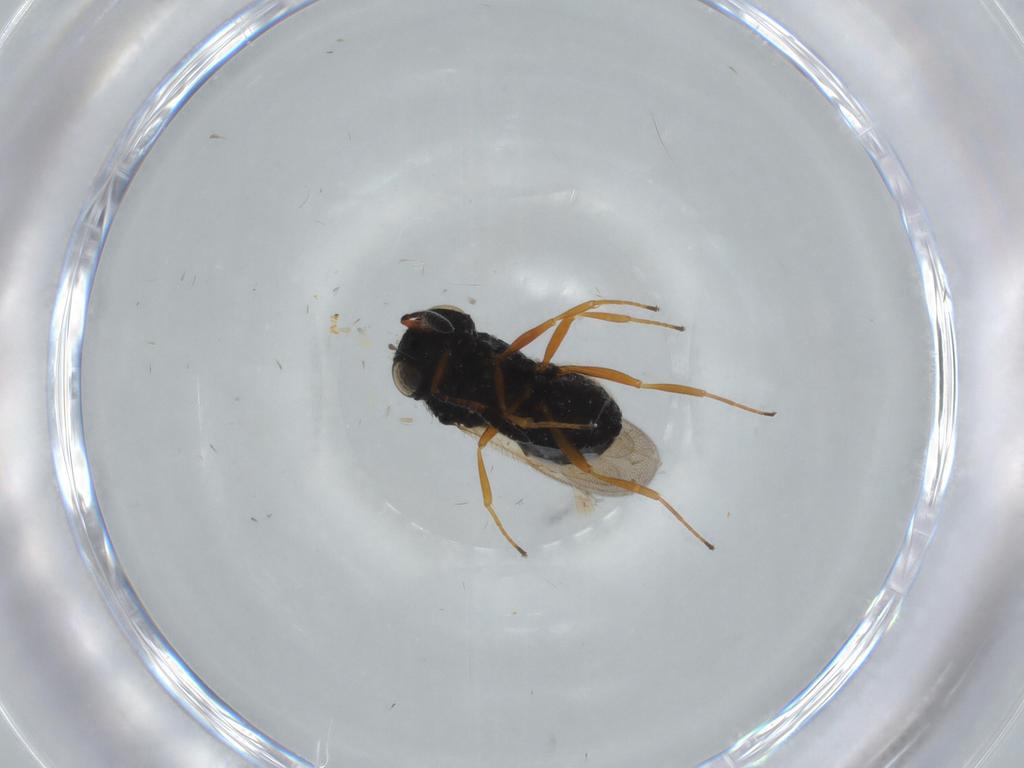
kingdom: Animalia
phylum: Arthropoda
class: Insecta
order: Hymenoptera
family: Scelionidae
